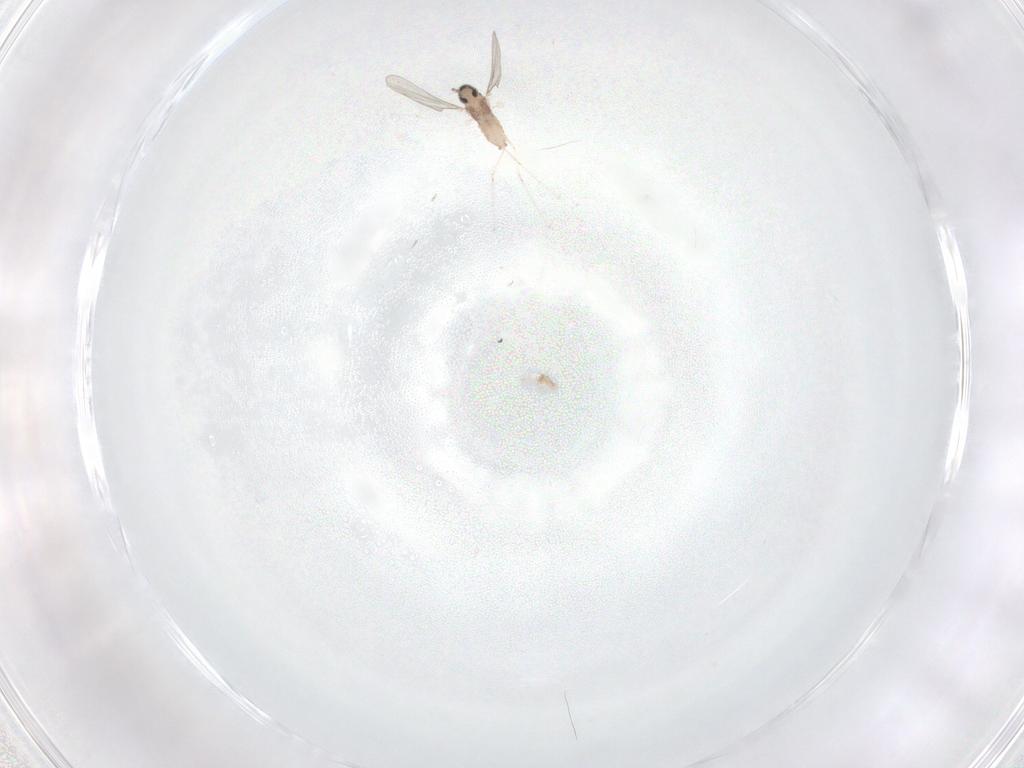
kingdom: Animalia
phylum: Arthropoda
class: Insecta
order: Diptera
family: Cecidomyiidae
